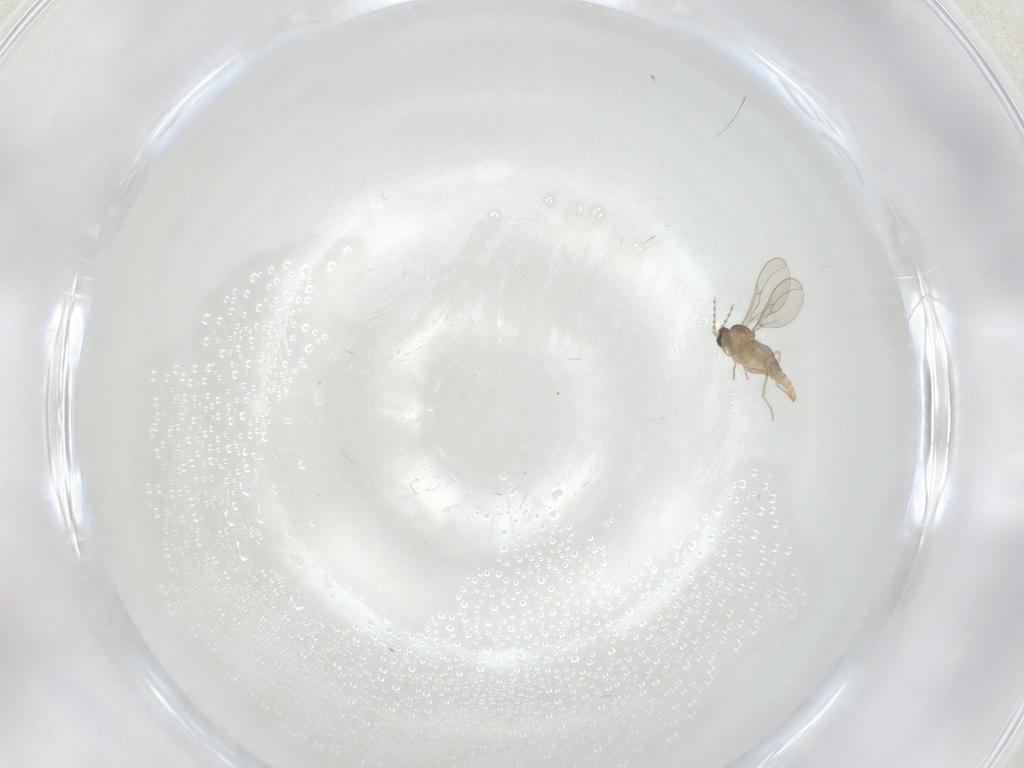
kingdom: Animalia
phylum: Arthropoda
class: Insecta
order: Diptera
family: Cecidomyiidae
